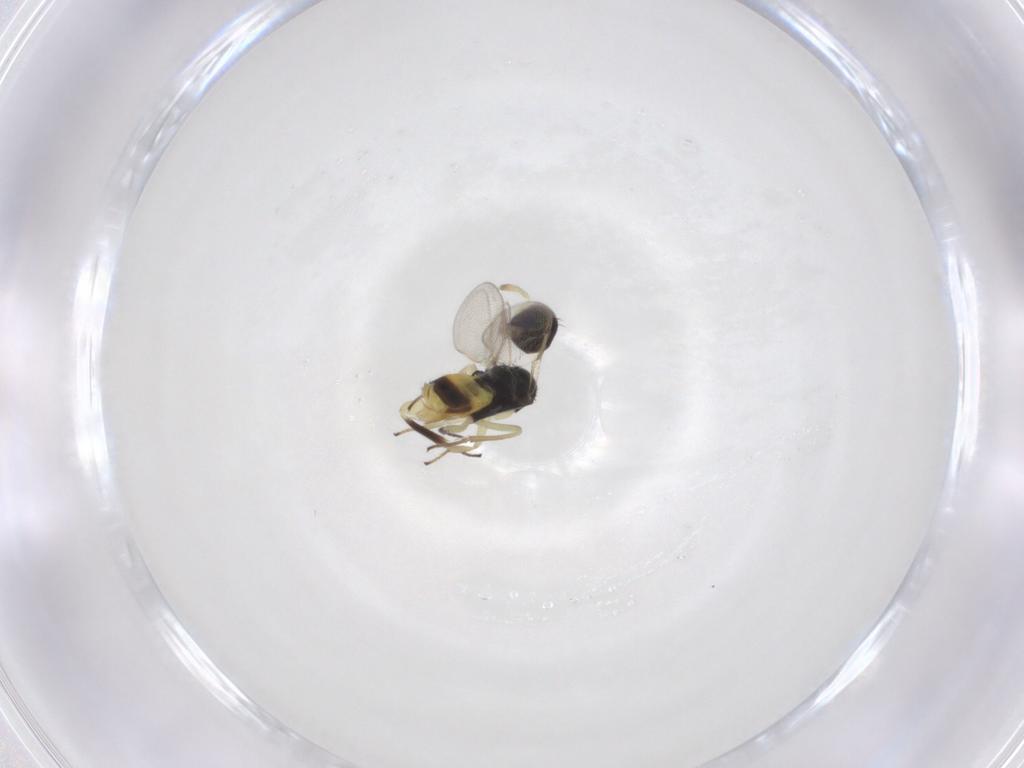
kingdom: Animalia
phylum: Arthropoda
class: Insecta
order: Hymenoptera
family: Aphelinidae
